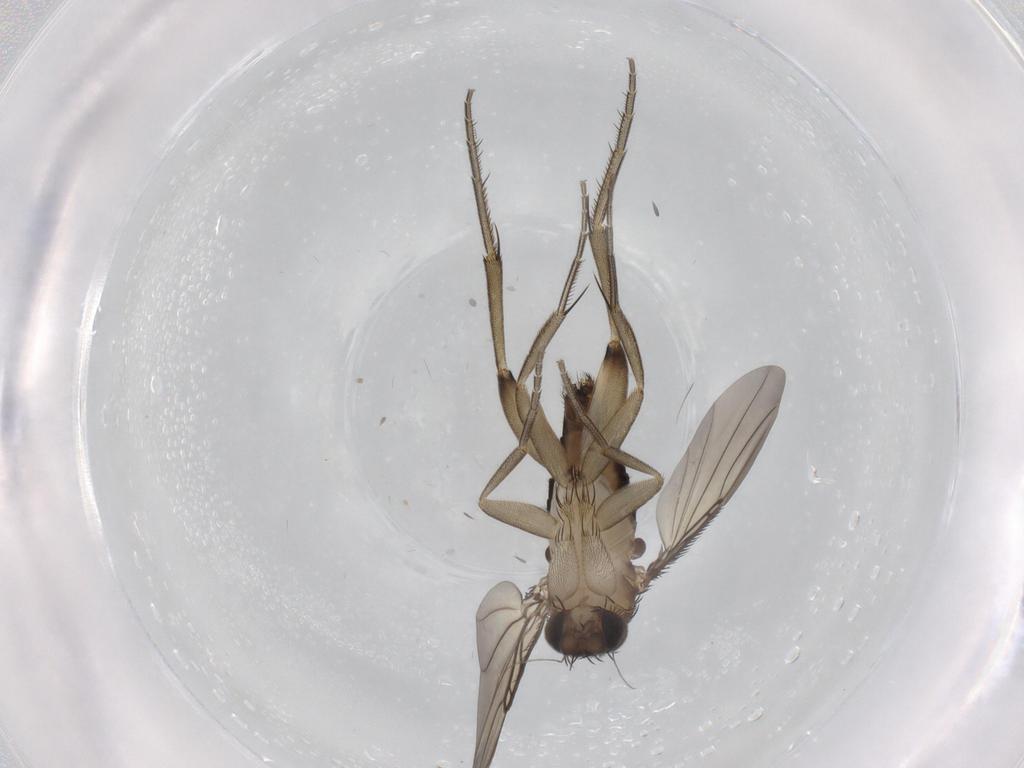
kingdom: Animalia
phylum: Arthropoda
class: Insecta
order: Diptera
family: Phoridae
